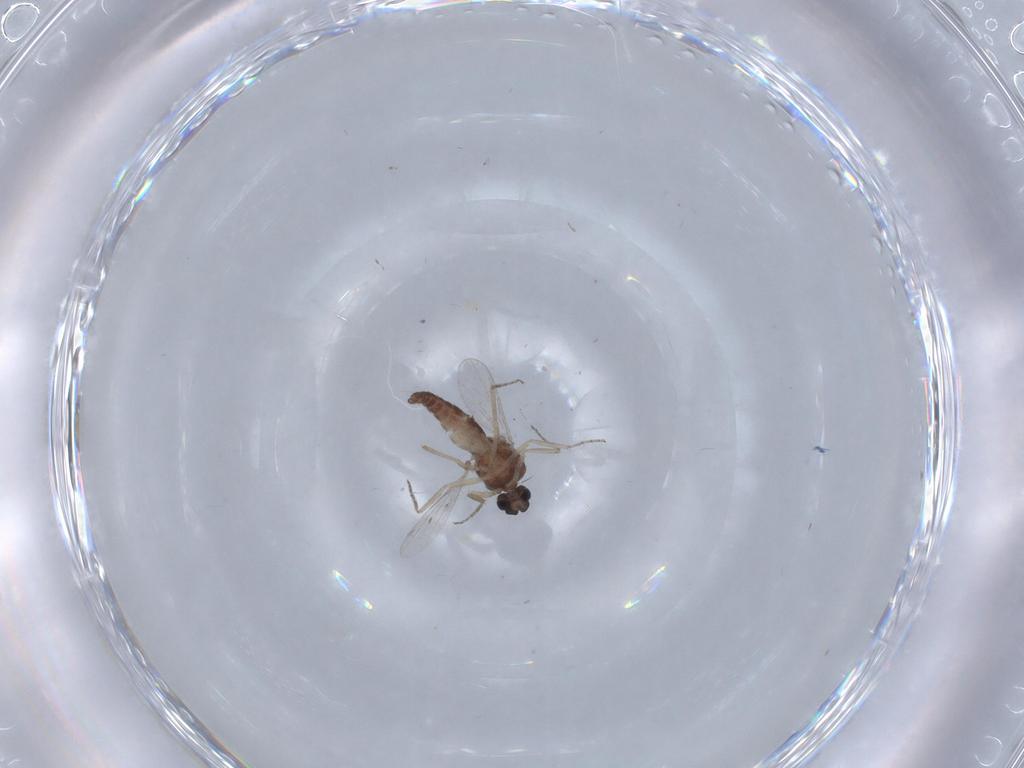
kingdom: Animalia
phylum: Arthropoda
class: Insecta
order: Diptera
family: Ceratopogonidae
